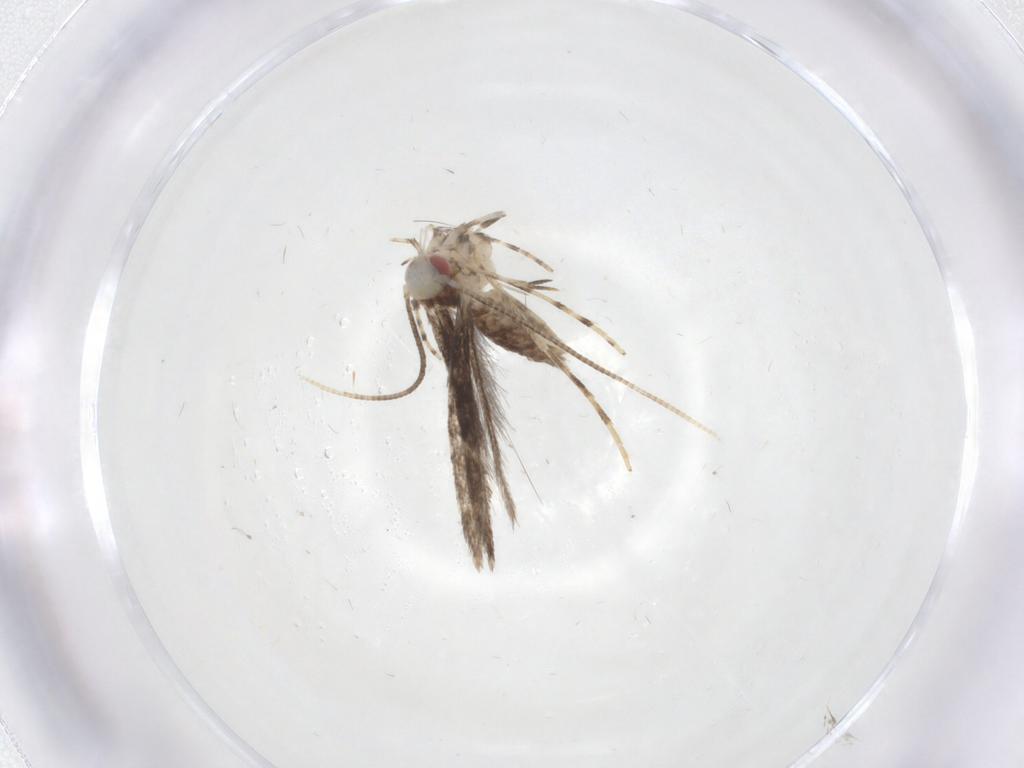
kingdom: Animalia
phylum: Arthropoda
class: Insecta
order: Lepidoptera
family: Gracillariidae
